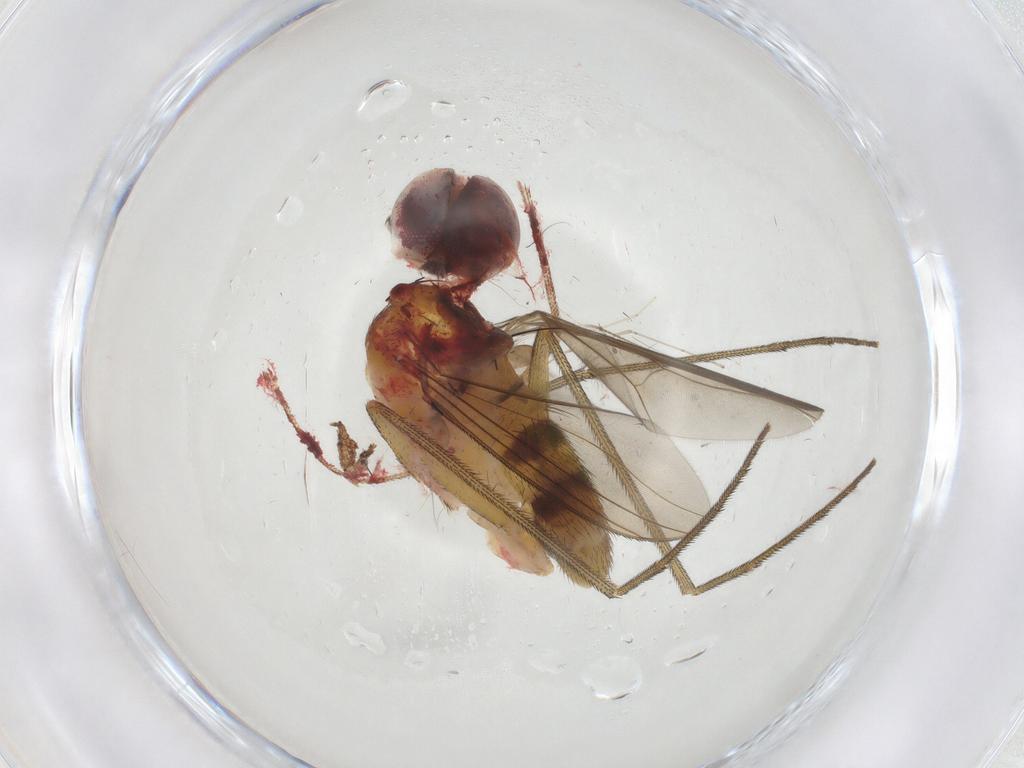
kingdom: Animalia
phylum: Arthropoda
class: Insecta
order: Diptera
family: Dolichopodidae
